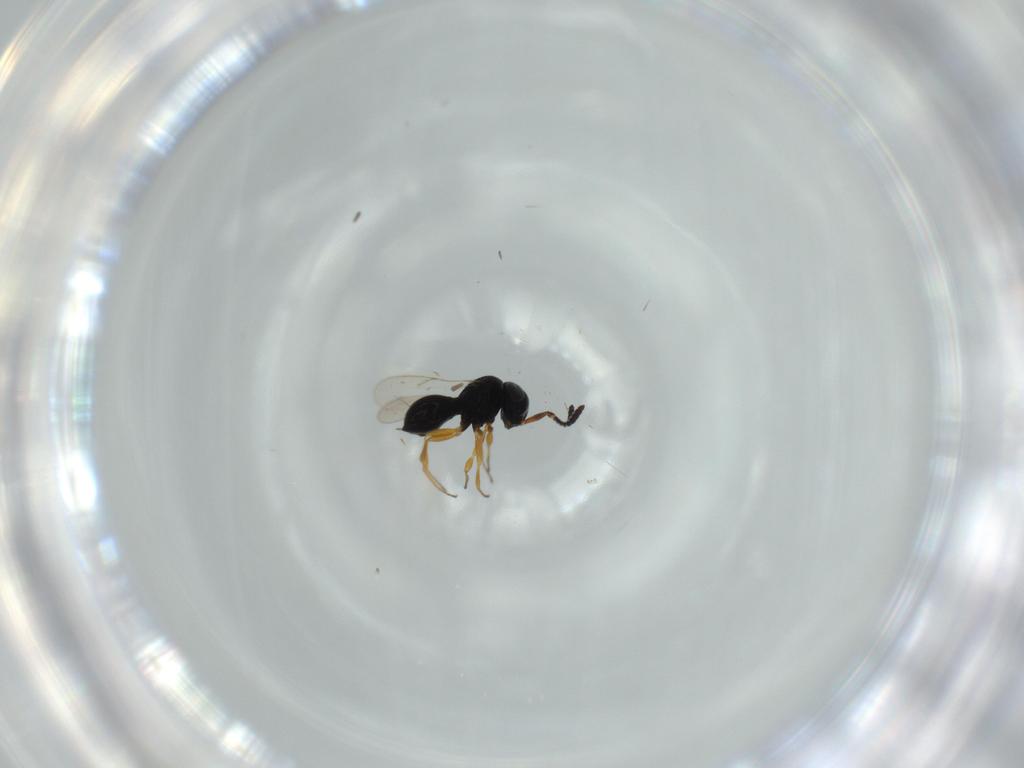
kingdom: Animalia
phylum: Arthropoda
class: Insecta
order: Hymenoptera
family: Scelionidae
